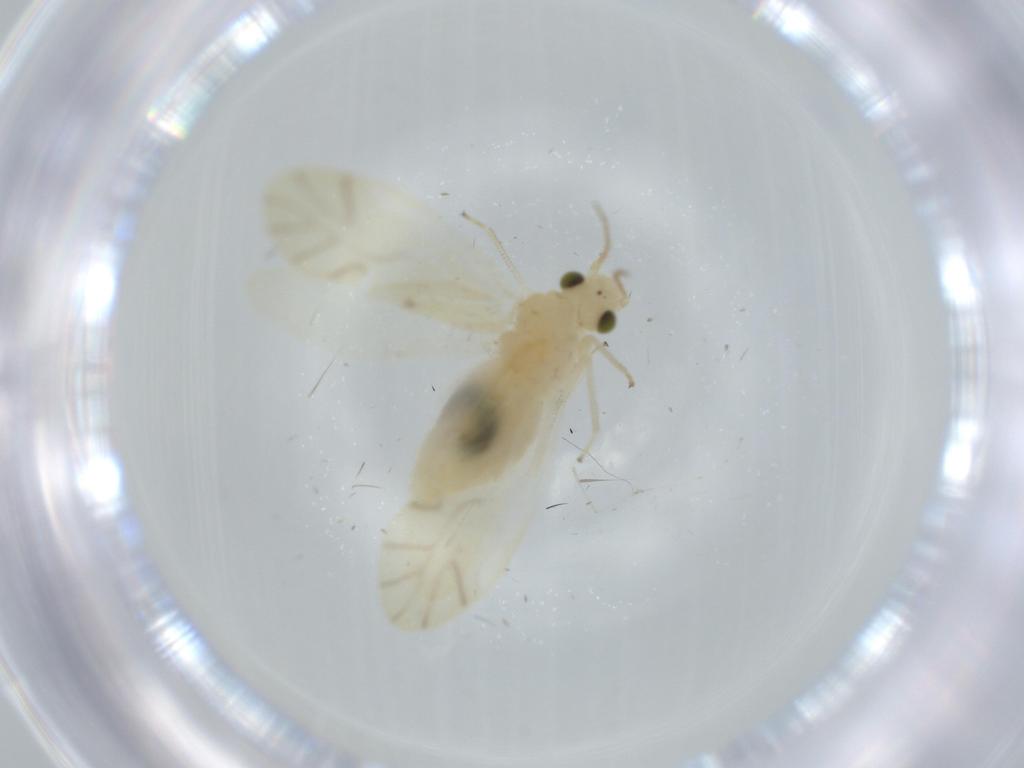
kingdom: Animalia
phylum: Arthropoda
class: Insecta
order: Psocodea
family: Caeciliusidae
